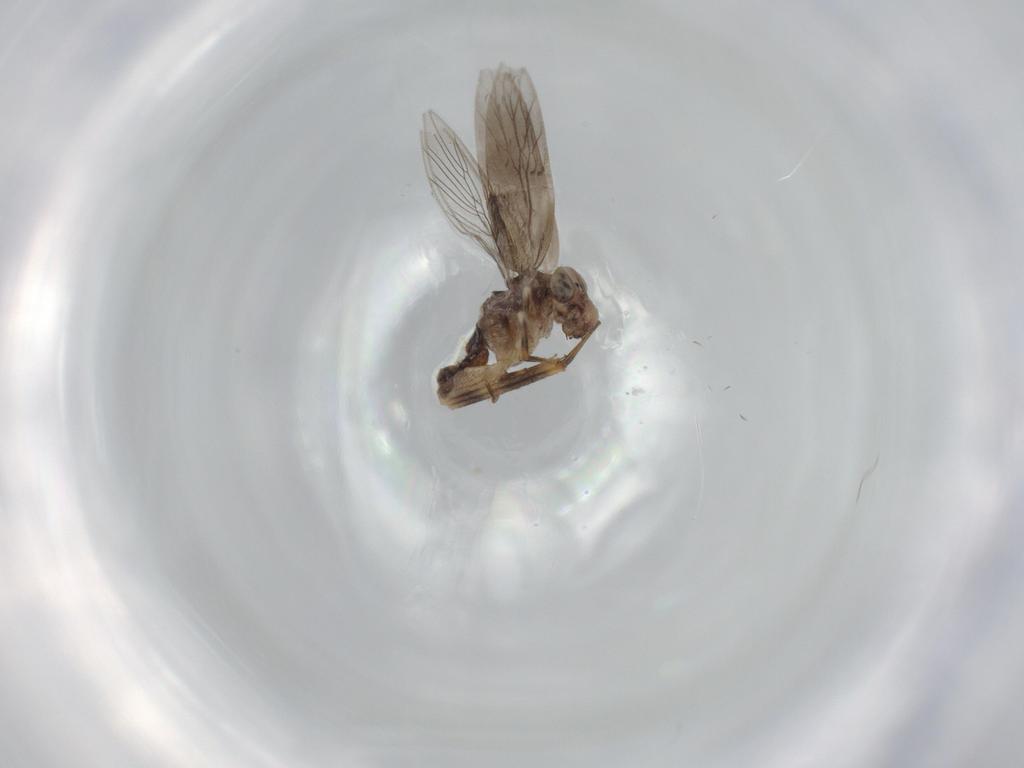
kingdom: Animalia
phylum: Arthropoda
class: Insecta
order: Psocodea
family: Lepidopsocidae
